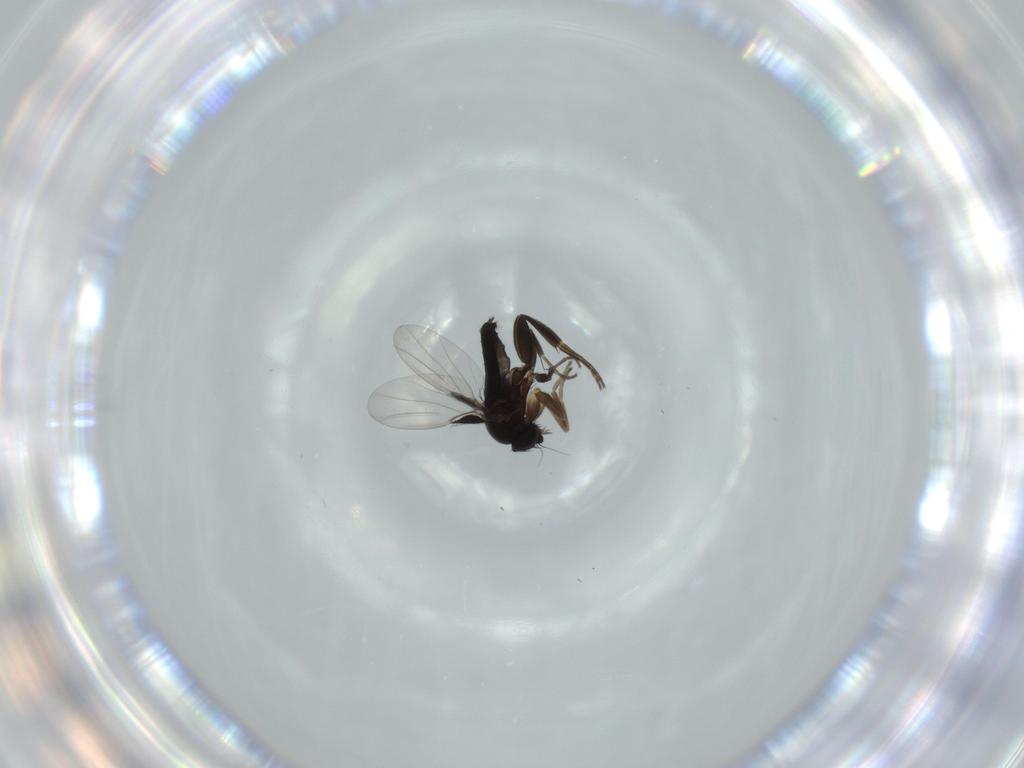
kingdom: Animalia
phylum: Arthropoda
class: Insecta
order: Diptera
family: Phoridae
